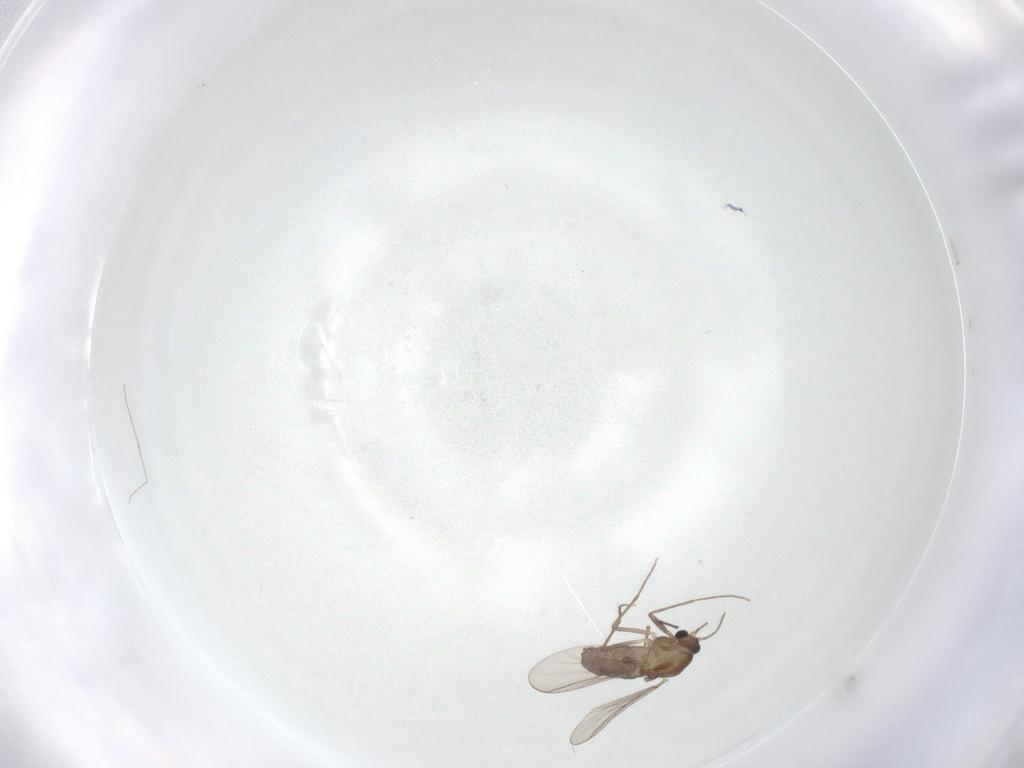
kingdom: Animalia
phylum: Arthropoda
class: Insecta
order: Diptera
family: Chironomidae
